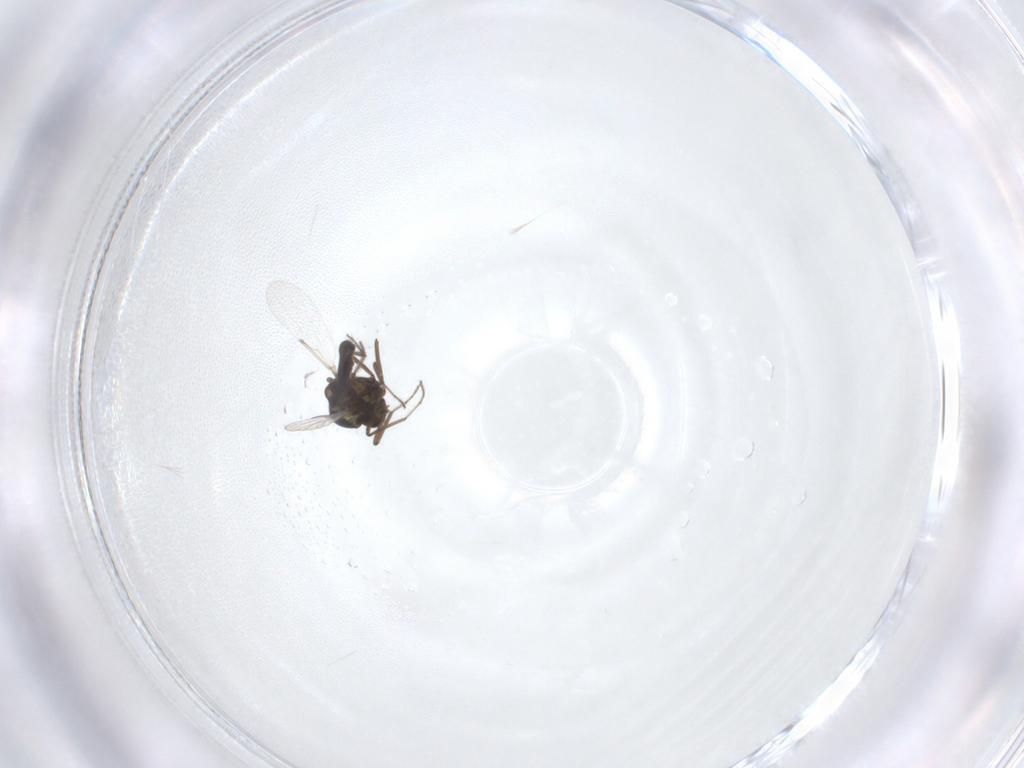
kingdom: Animalia
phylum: Arthropoda
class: Insecta
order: Diptera
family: Ceratopogonidae
